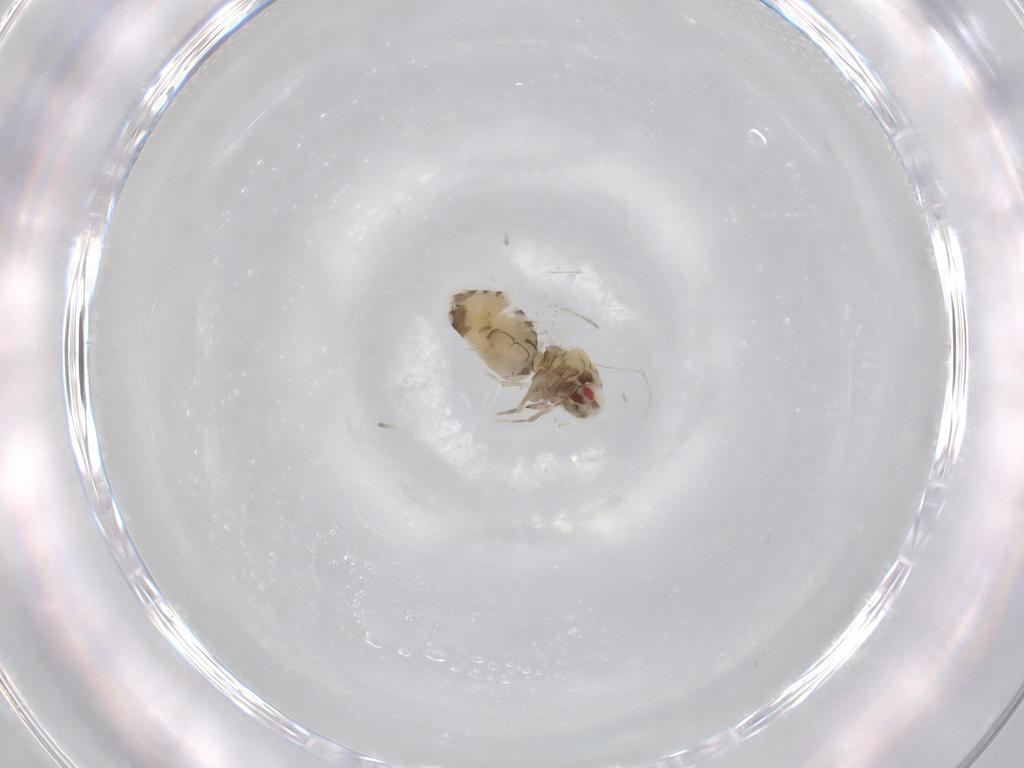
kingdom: Animalia
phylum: Arthropoda
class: Insecta
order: Hemiptera
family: Aleyrodidae
